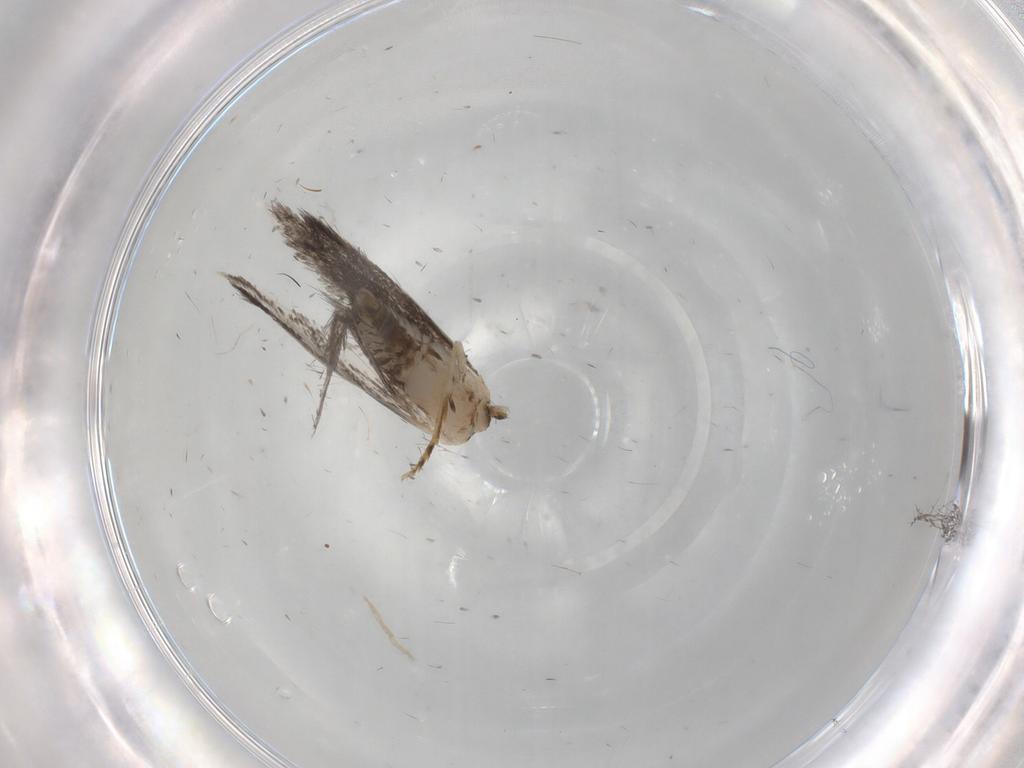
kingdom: Animalia
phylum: Arthropoda
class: Insecta
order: Lepidoptera
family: Tineidae
